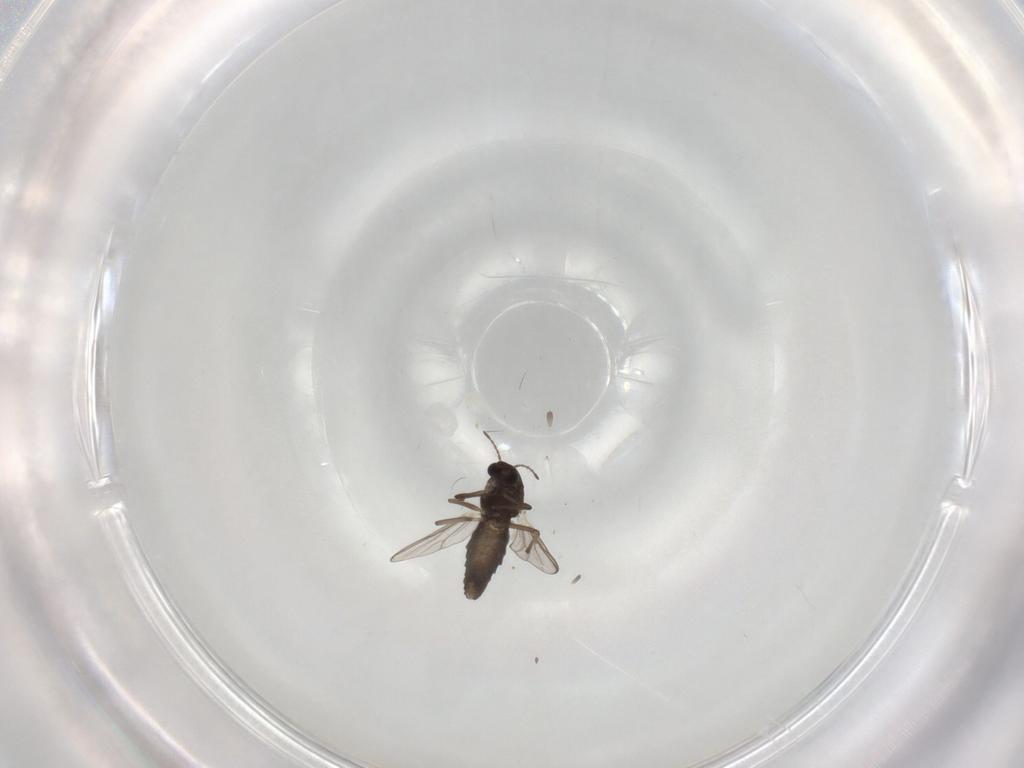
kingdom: Animalia
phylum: Arthropoda
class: Insecta
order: Diptera
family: Chironomidae
